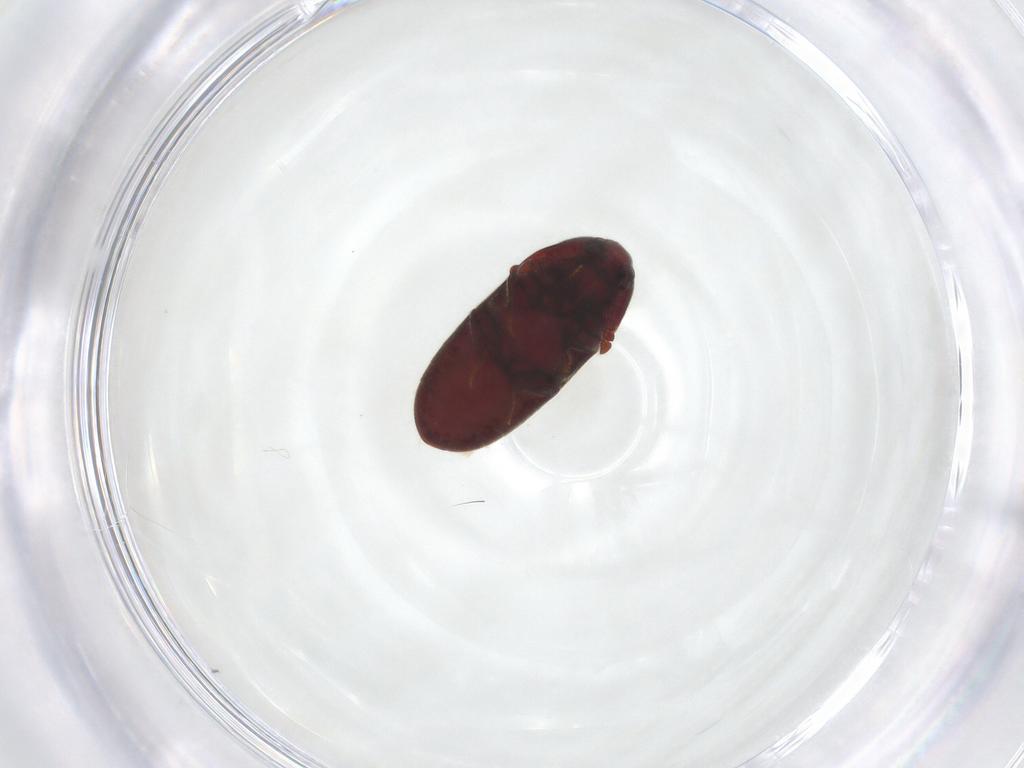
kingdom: Animalia
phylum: Arthropoda
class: Insecta
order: Coleoptera
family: Throscidae
